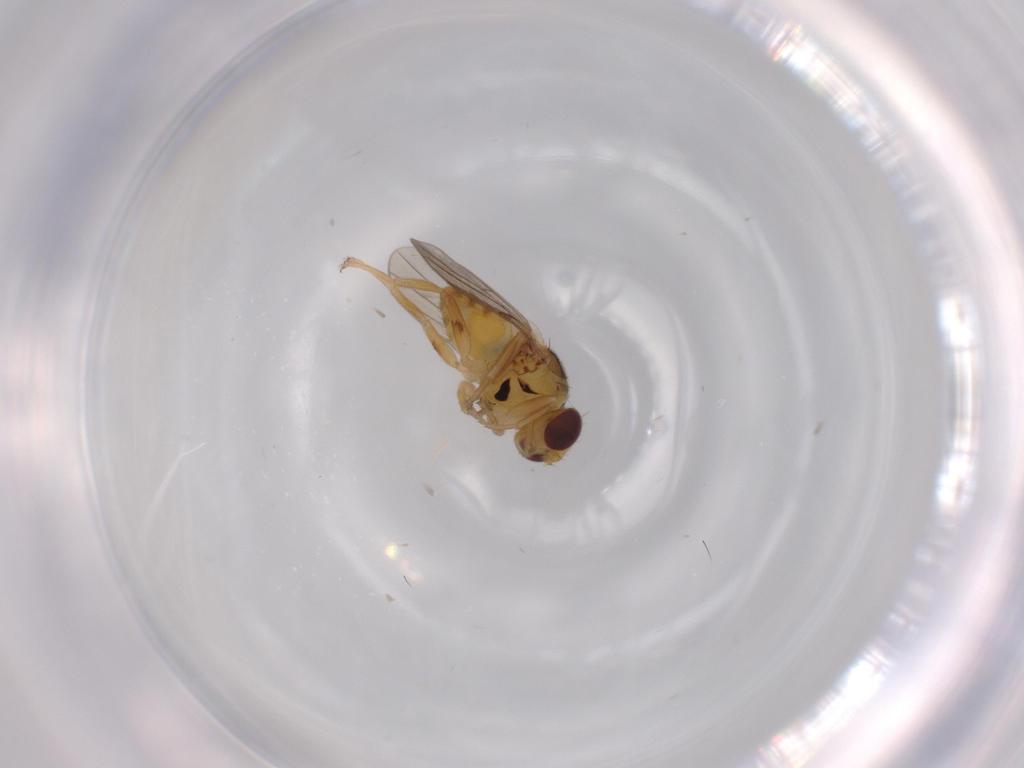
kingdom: Animalia
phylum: Arthropoda
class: Insecta
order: Diptera
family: Chloropidae
